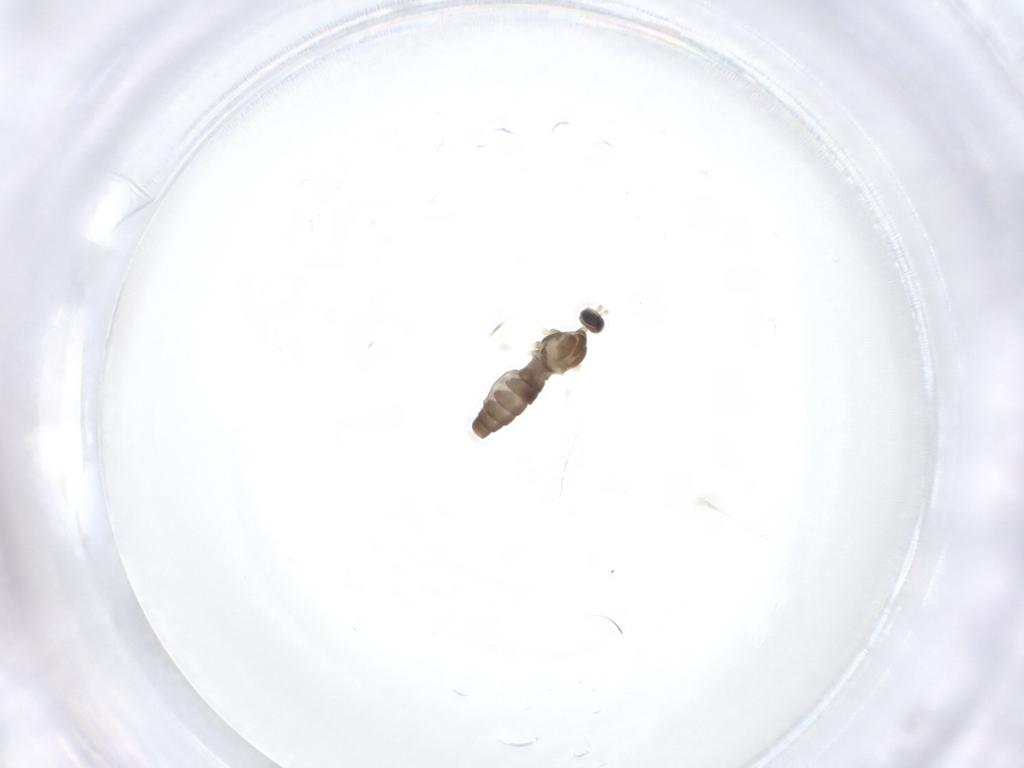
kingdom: Animalia
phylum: Arthropoda
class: Insecta
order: Diptera
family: Cecidomyiidae
